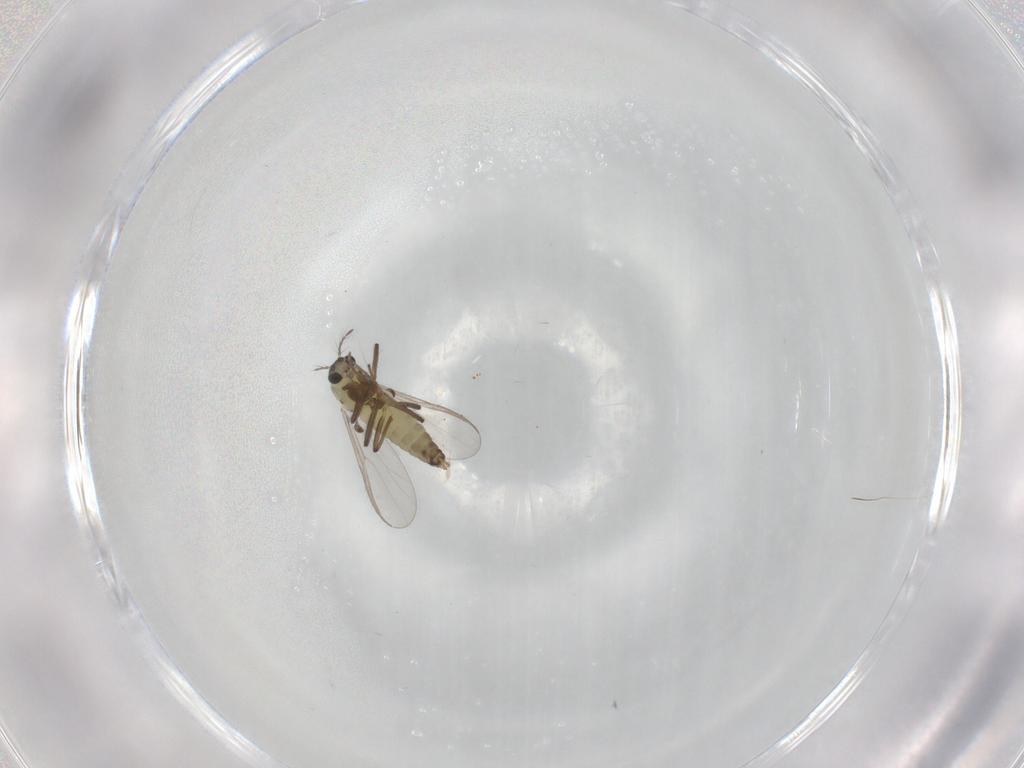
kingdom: Animalia
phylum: Arthropoda
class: Insecta
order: Diptera
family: Chironomidae
